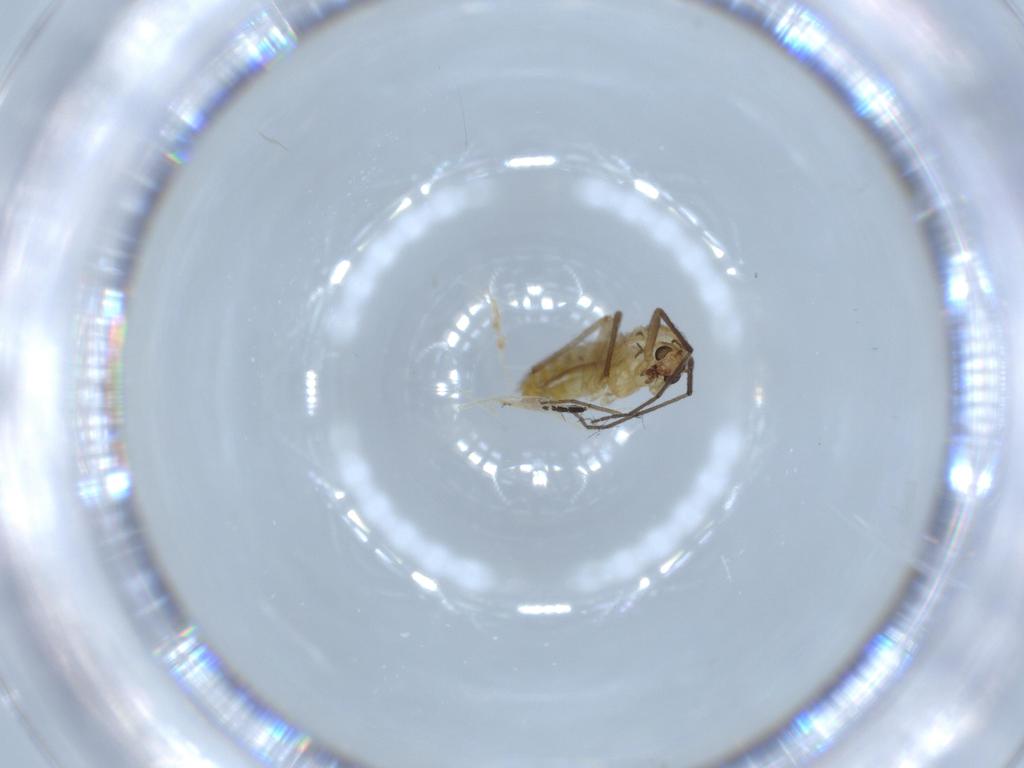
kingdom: Animalia
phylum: Arthropoda
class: Insecta
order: Diptera
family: Chironomidae
